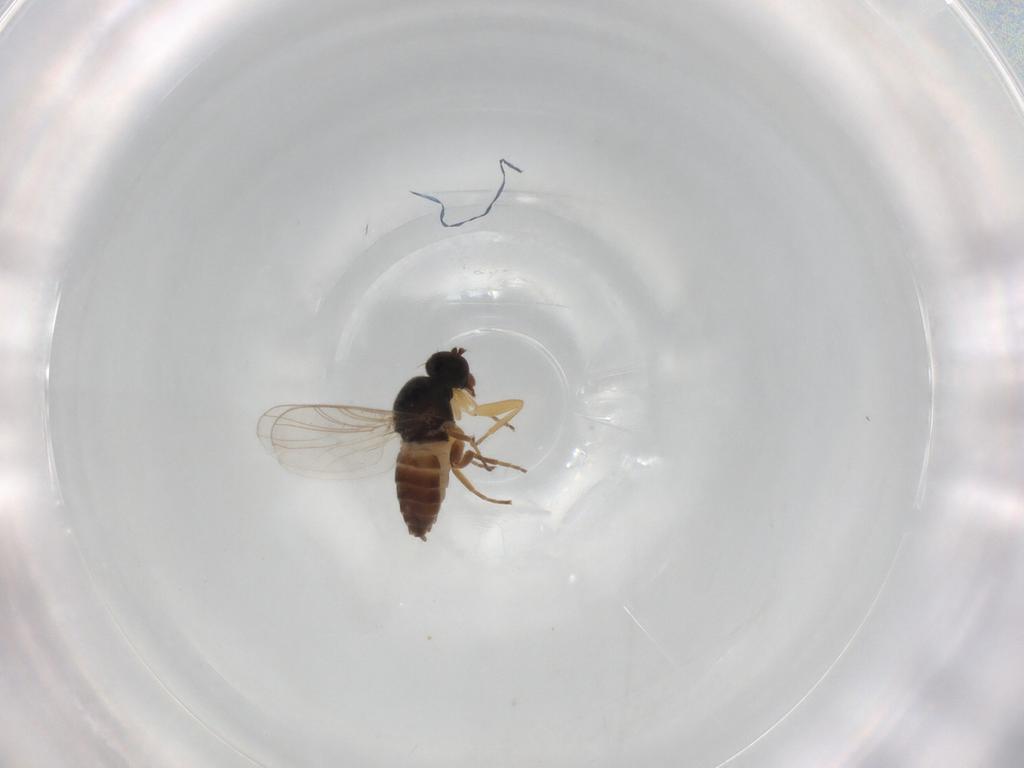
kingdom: Animalia
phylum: Arthropoda
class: Insecta
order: Diptera
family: Hybotidae
